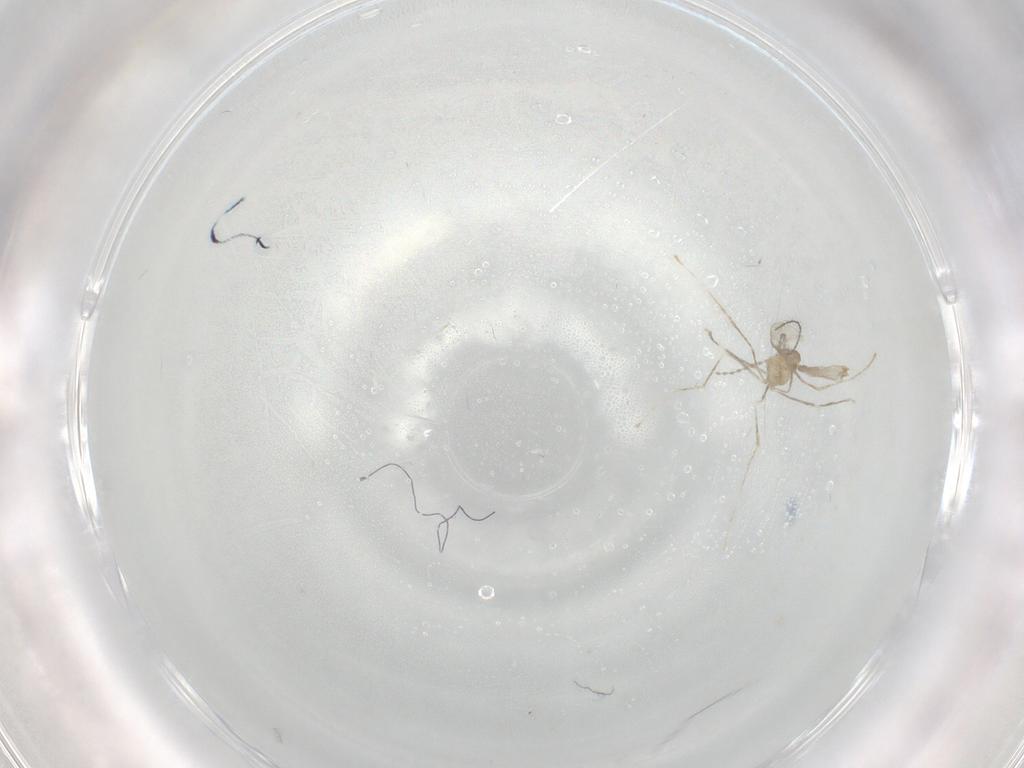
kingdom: Animalia
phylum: Arthropoda
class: Insecta
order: Diptera
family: Cecidomyiidae
